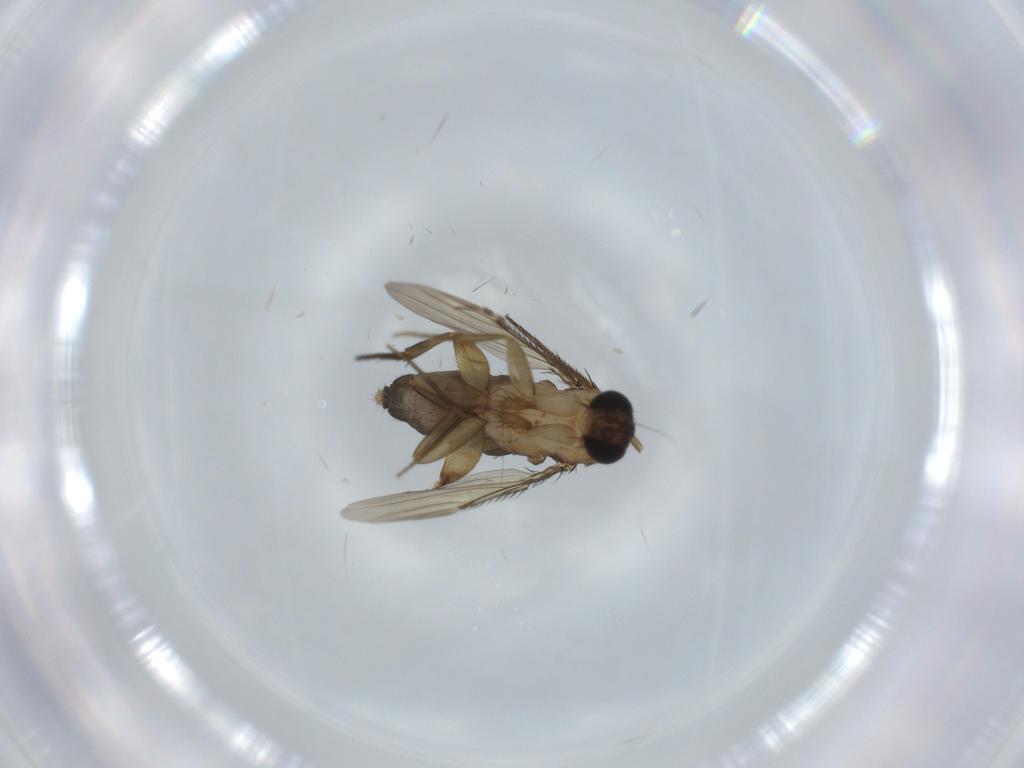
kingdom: Animalia
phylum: Arthropoda
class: Insecta
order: Diptera
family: Phoridae
